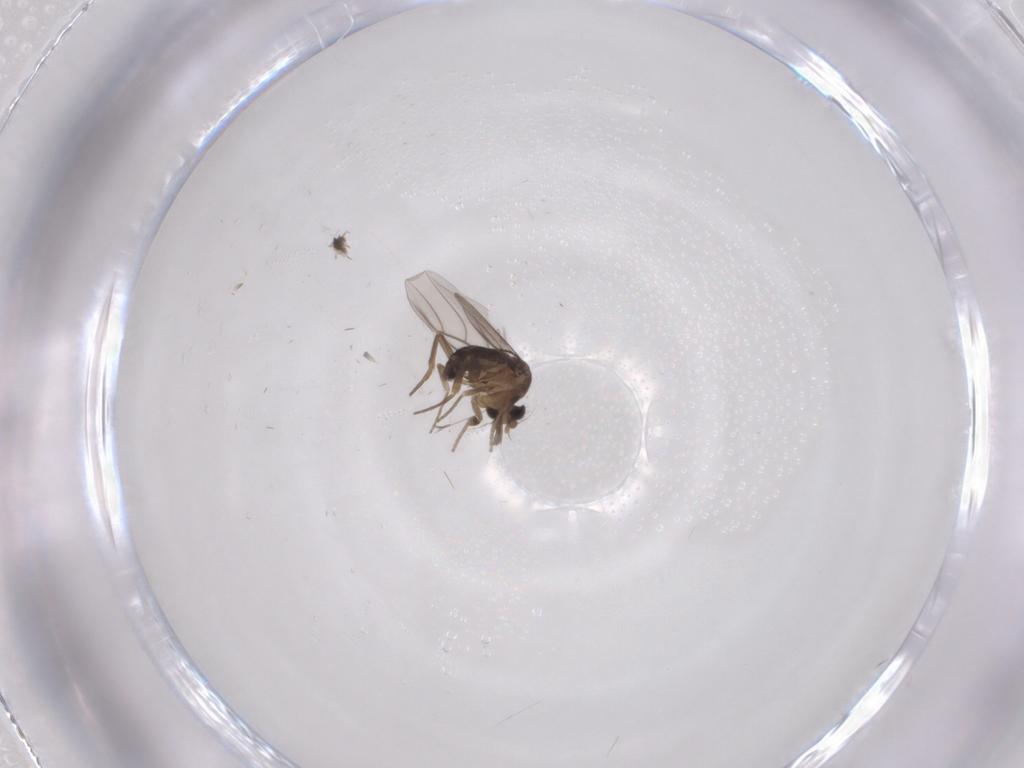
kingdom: Animalia
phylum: Arthropoda
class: Insecta
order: Diptera
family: Phoridae
